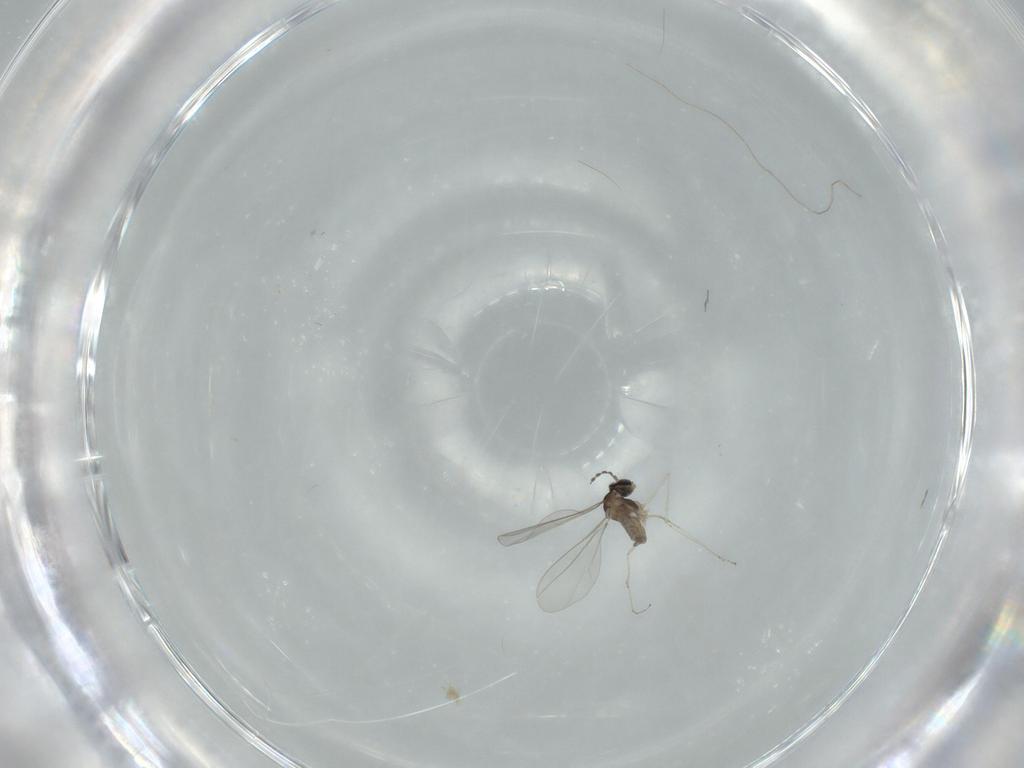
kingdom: Animalia
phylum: Arthropoda
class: Insecta
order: Diptera
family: Cecidomyiidae
